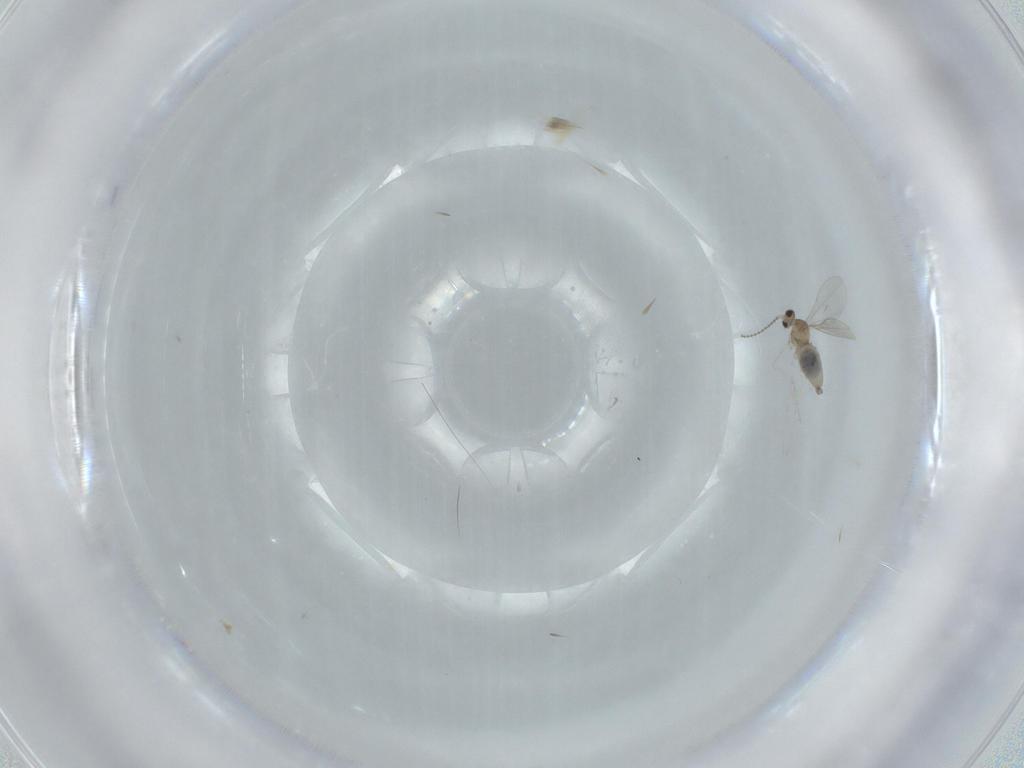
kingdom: Animalia
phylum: Arthropoda
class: Insecta
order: Diptera
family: Cecidomyiidae
